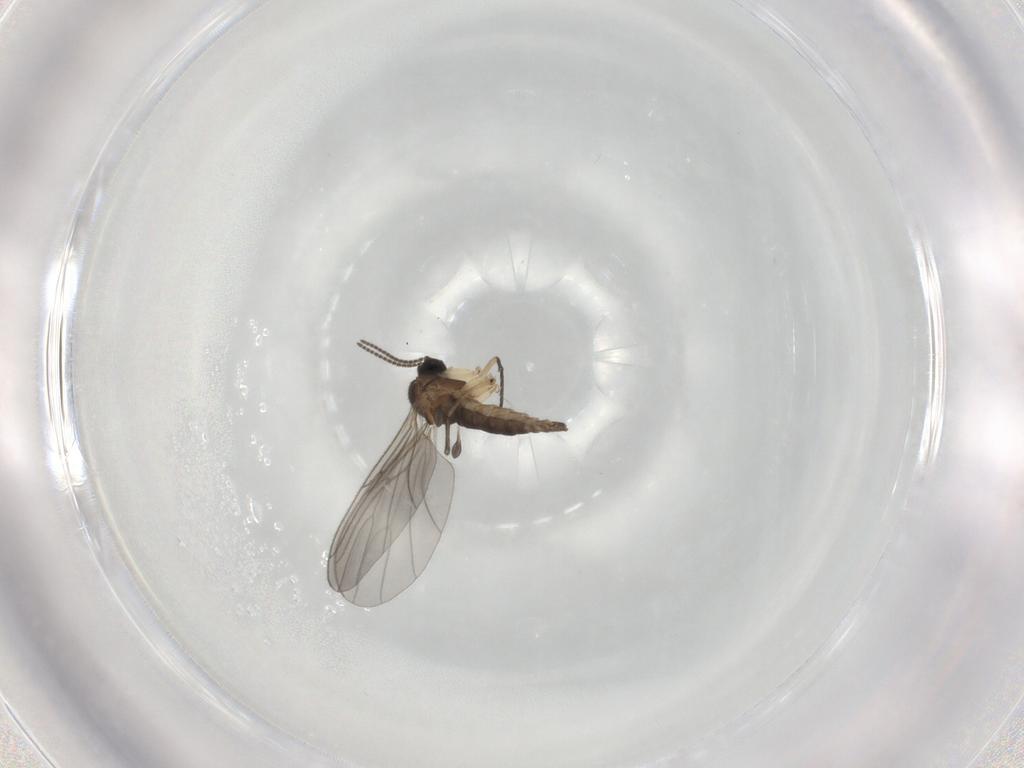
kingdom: Animalia
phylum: Arthropoda
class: Insecta
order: Diptera
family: Sciaridae
